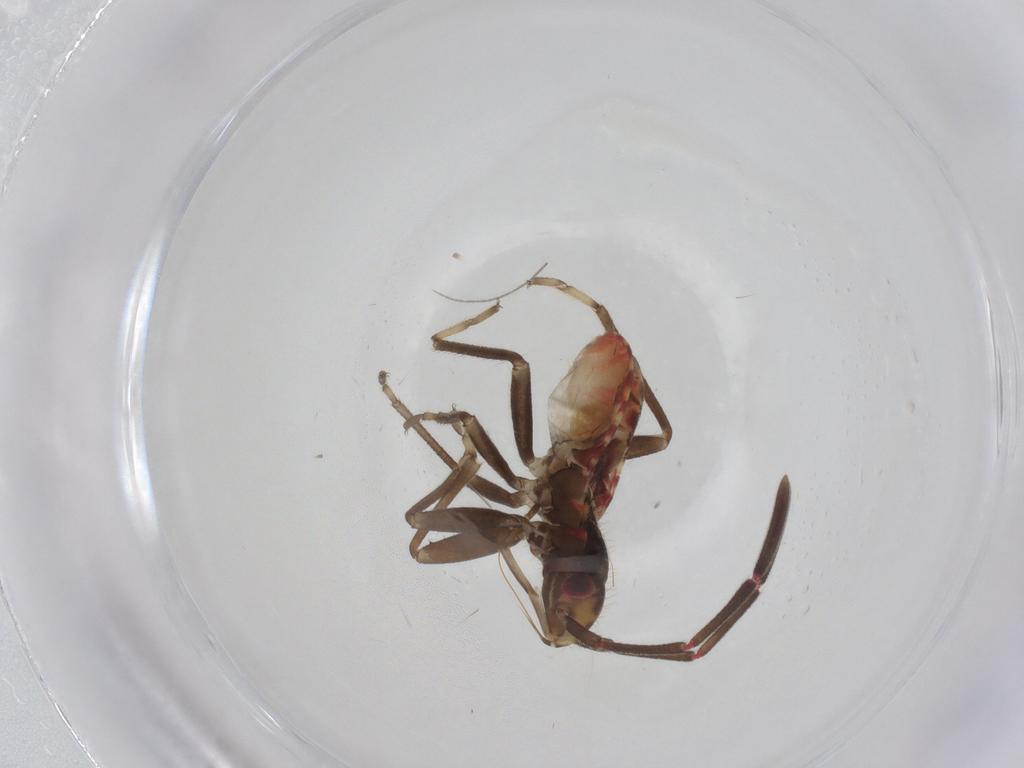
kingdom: Animalia
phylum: Arthropoda
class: Insecta
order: Hemiptera
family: Rhyparochromidae
